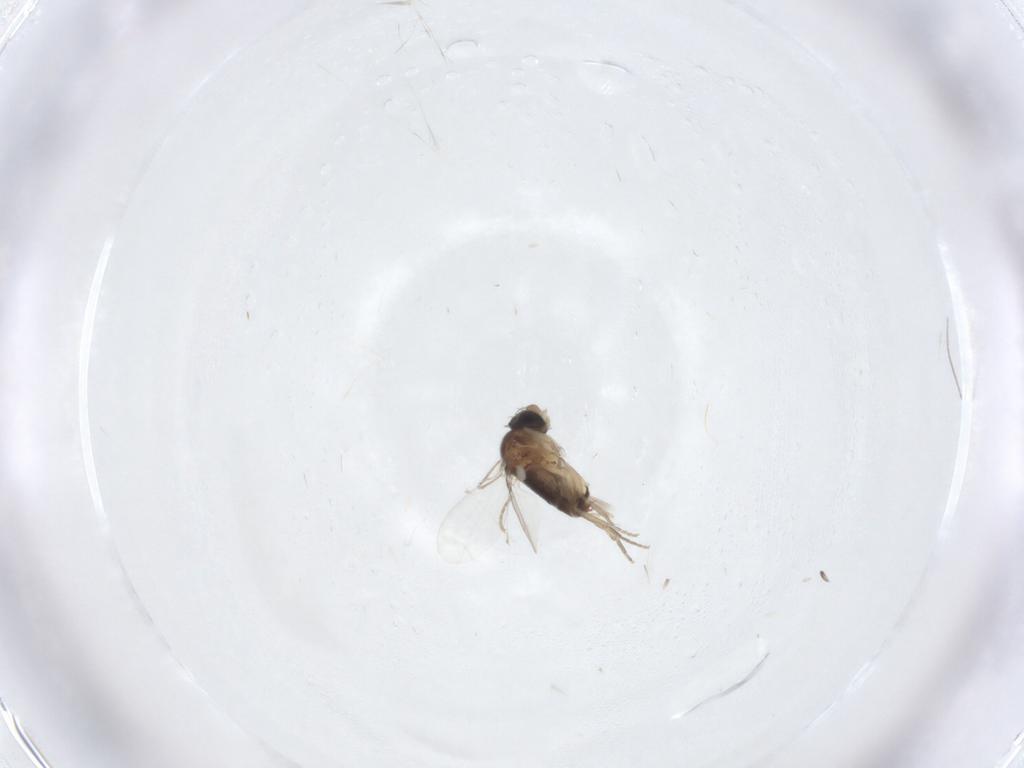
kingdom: Animalia
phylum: Arthropoda
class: Insecta
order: Diptera
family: Cecidomyiidae
